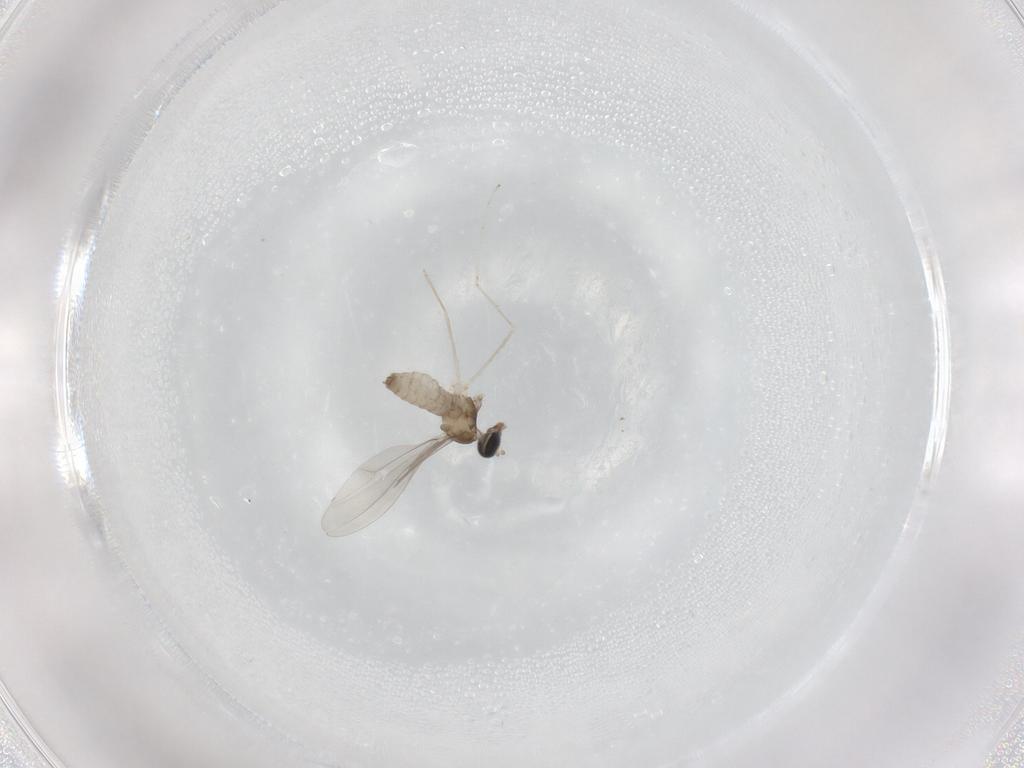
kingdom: Animalia
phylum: Arthropoda
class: Insecta
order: Diptera
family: Cecidomyiidae
